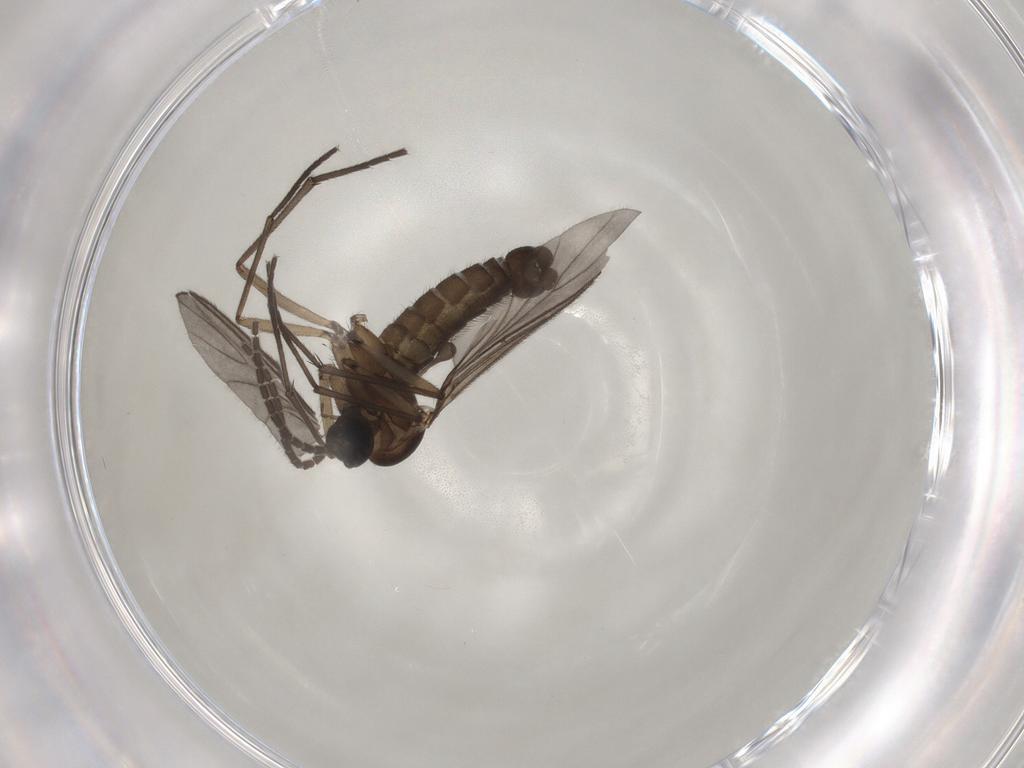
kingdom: Animalia
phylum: Arthropoda
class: Insecta
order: Diptera
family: Sciaridae
